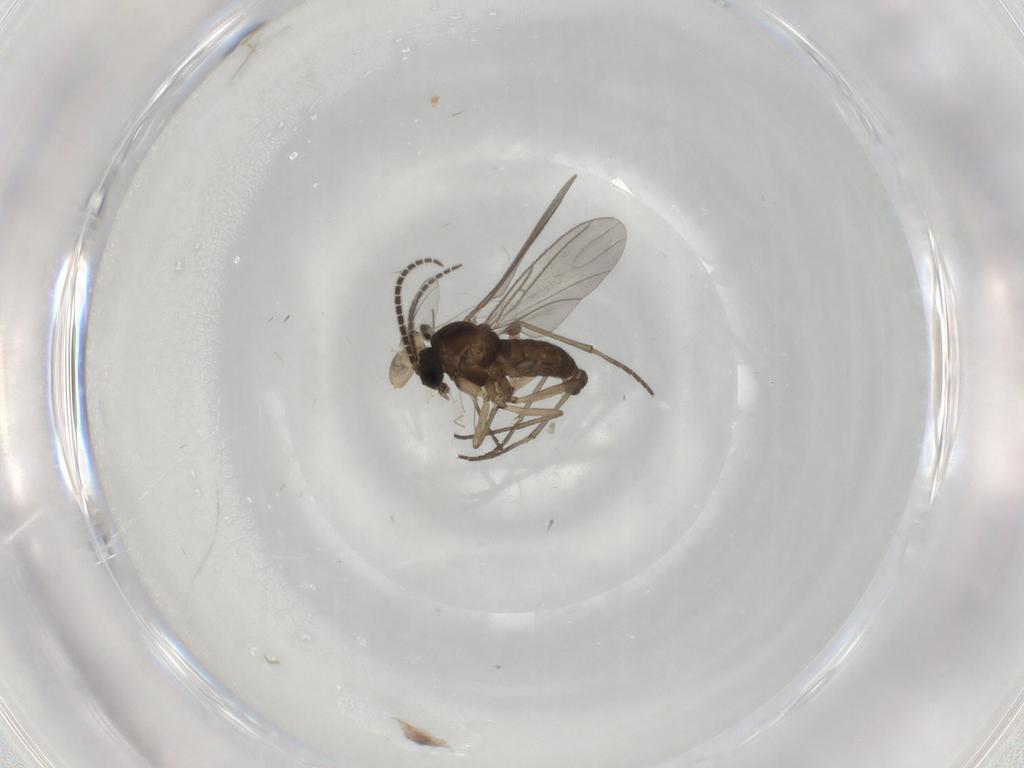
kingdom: Animalia
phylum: Arthropoda
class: Insecta
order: Diptera
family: Sciaridae
